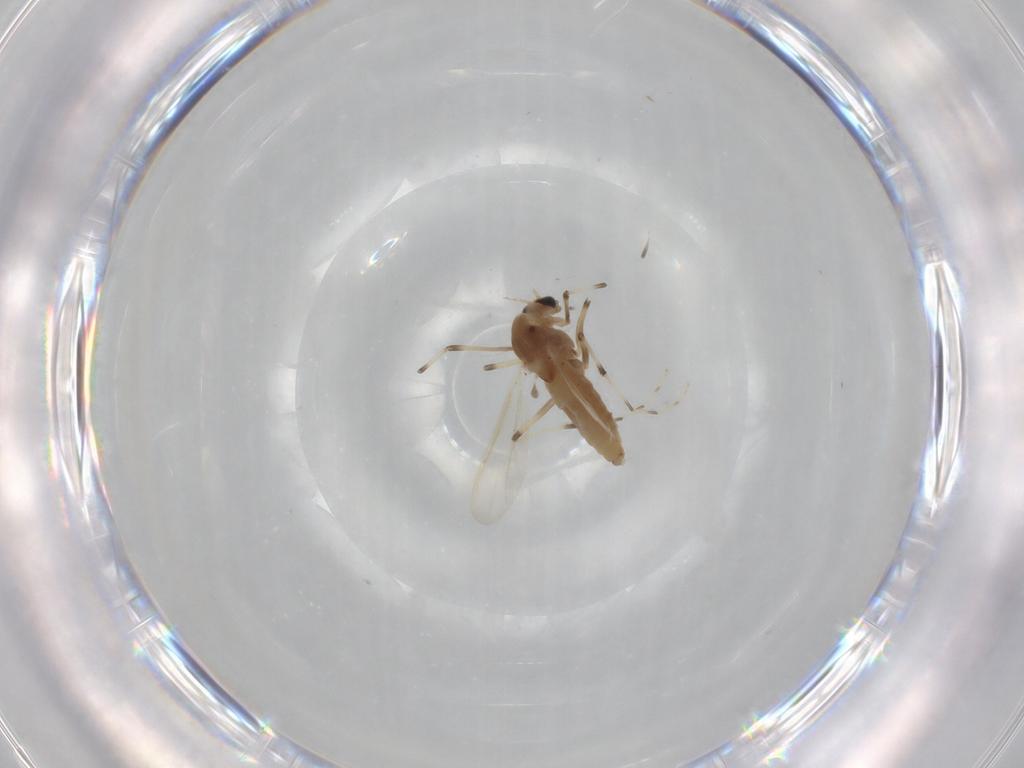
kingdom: Animalia
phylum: Arthropoda
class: Insecta
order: Diptera
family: Chironomidae
